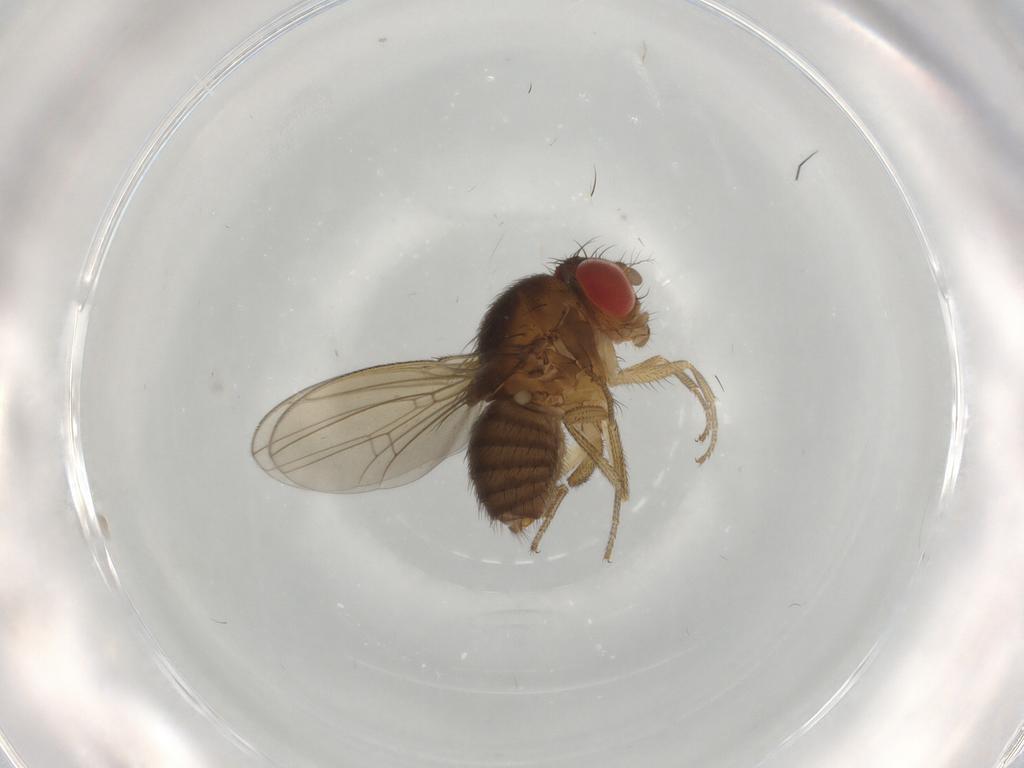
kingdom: Animalia
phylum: Arthropoda
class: Insecta
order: Diptera
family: Drosophilidae
